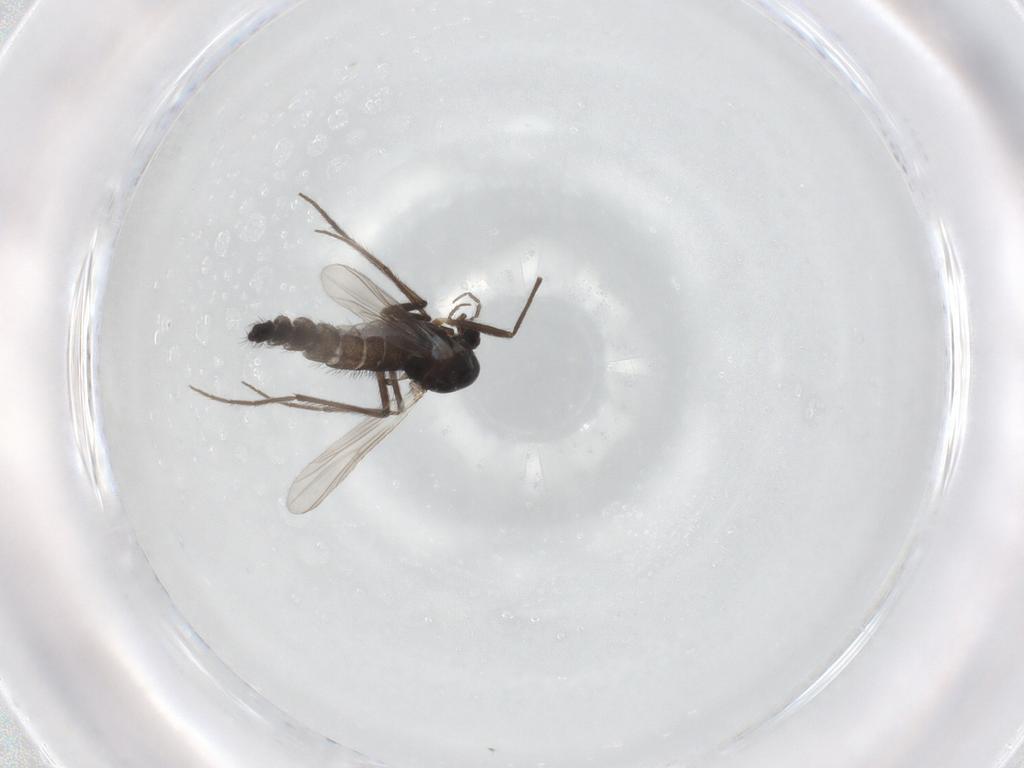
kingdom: Animalia
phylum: Arthropoda
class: Insecta
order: Diptera
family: Chironomidae
